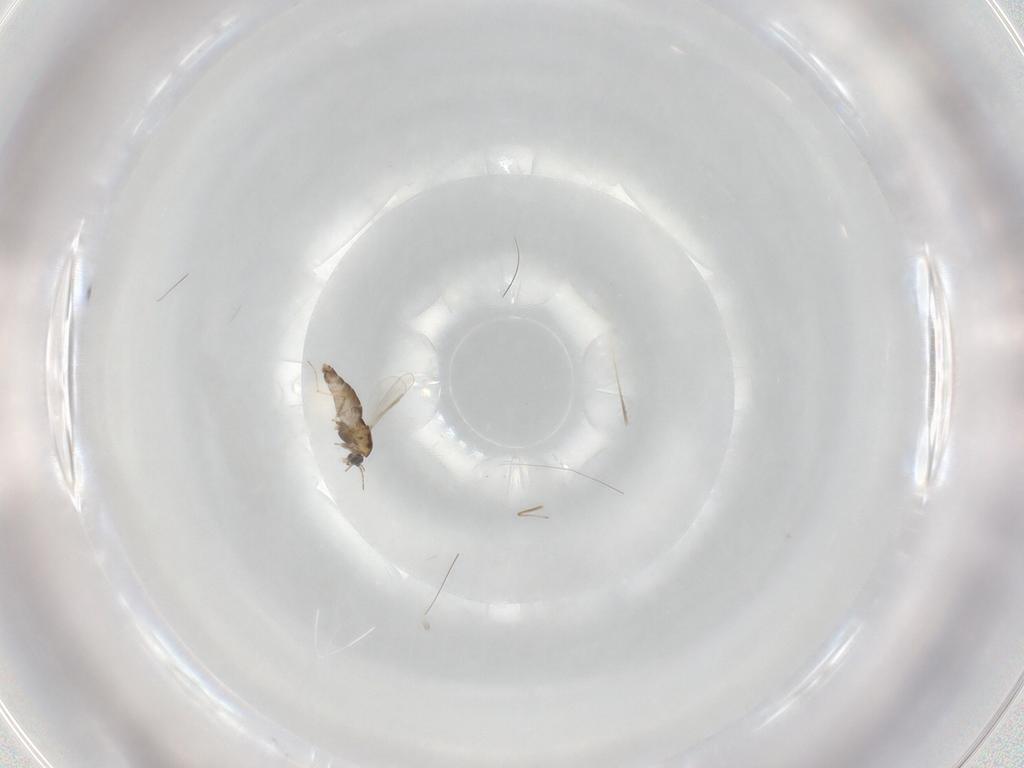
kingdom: Animalia
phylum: Arthropoda
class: Insecta
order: Diptera
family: Chironomidae
